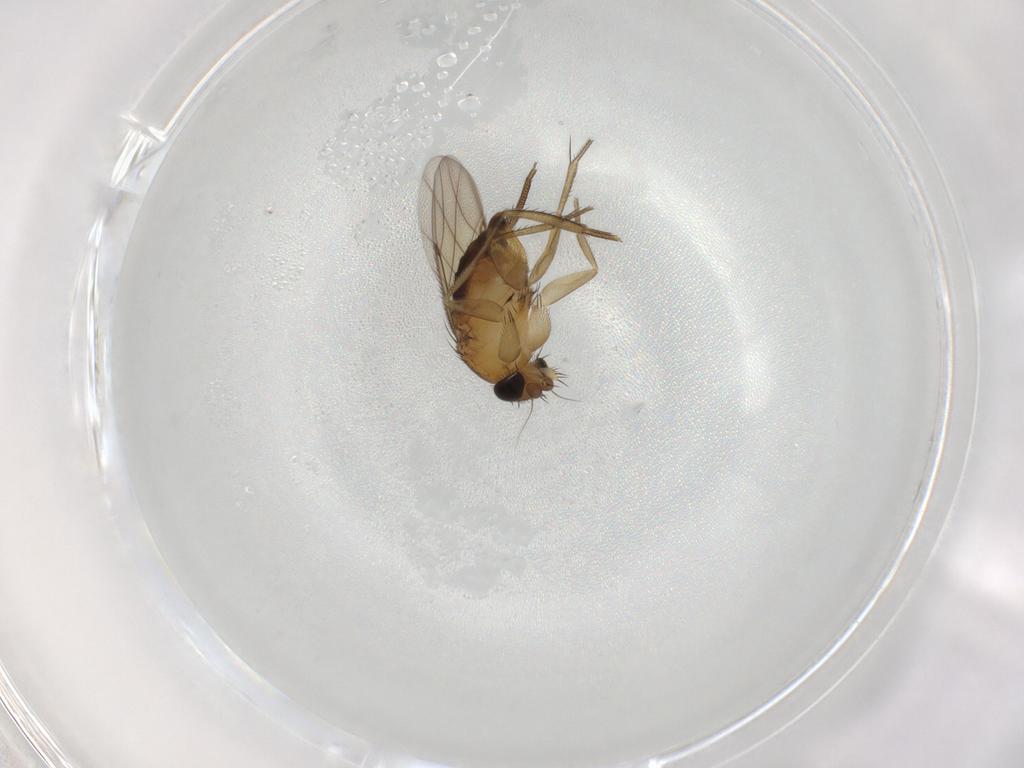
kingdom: Animalia
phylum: Arthropoda
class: Insecta
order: Diptera
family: Phoridae
